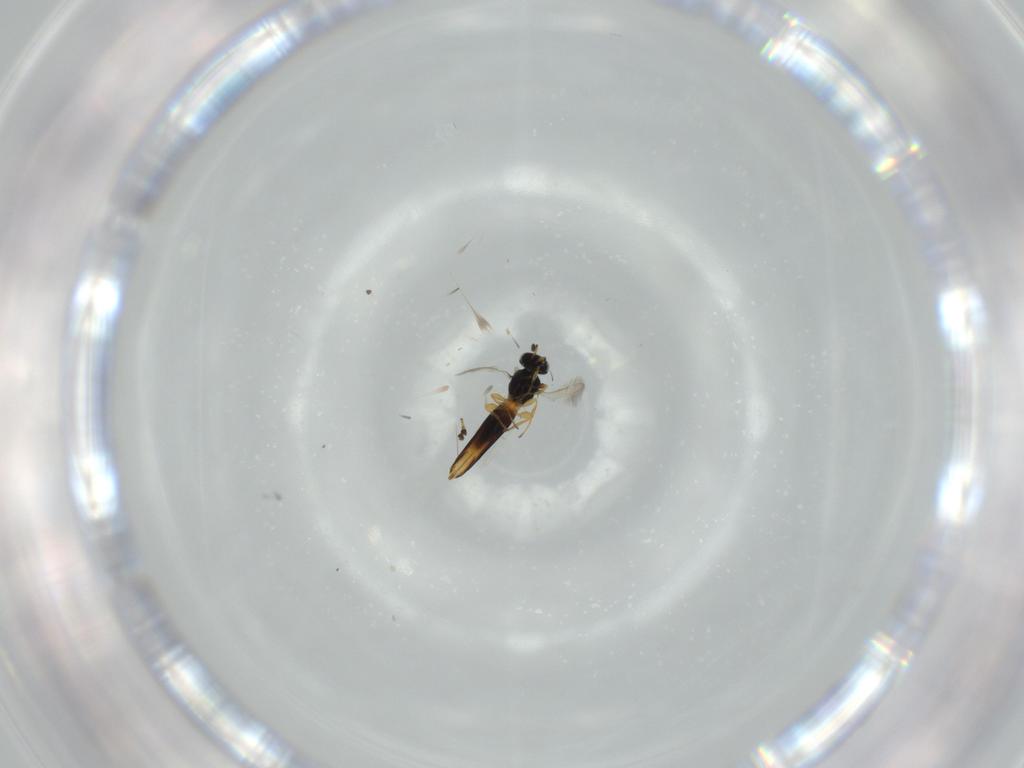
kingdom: Animalia
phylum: Arthropoda
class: Insecta
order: Hymenoptera
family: Scelionidae
